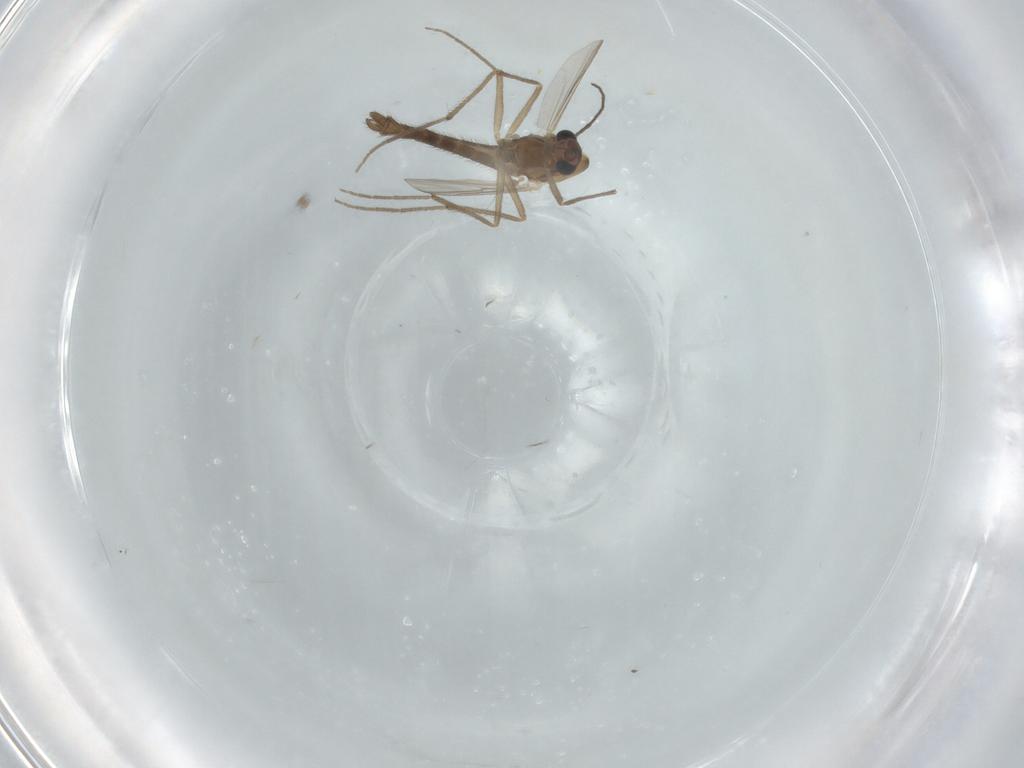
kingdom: Animalia
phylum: Arthropoda
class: Insecta
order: Diptera
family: Chironomidae
